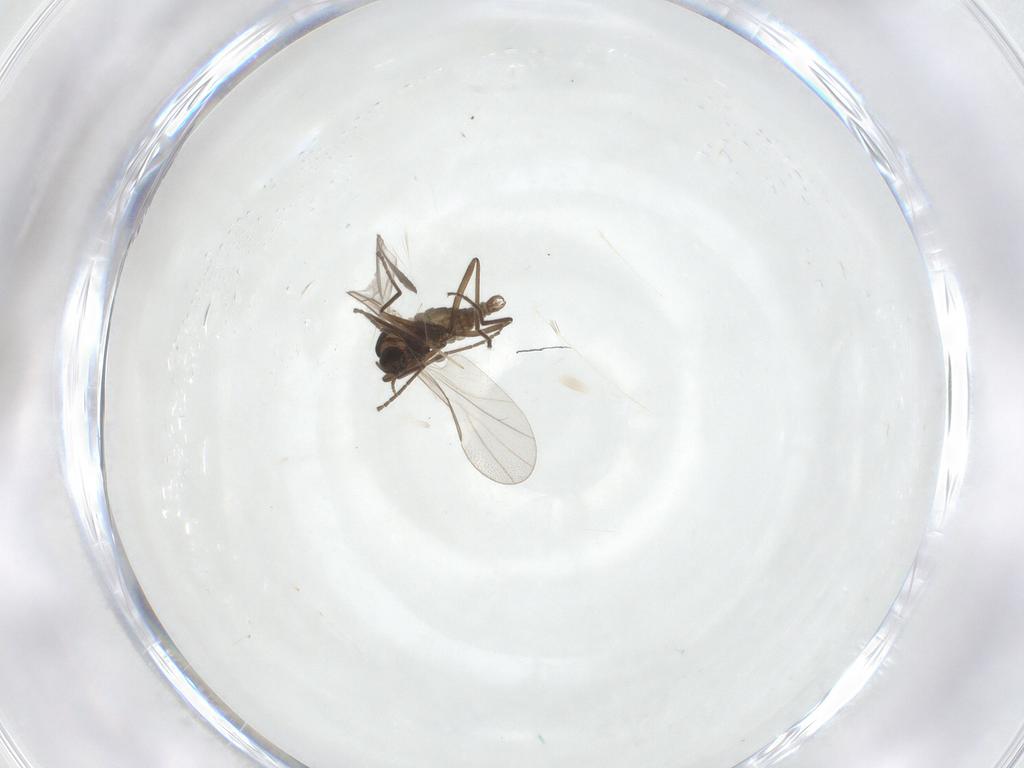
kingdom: Animalia
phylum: Arthropoda
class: Insecta
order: Diptera
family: Cecidomyiidae
